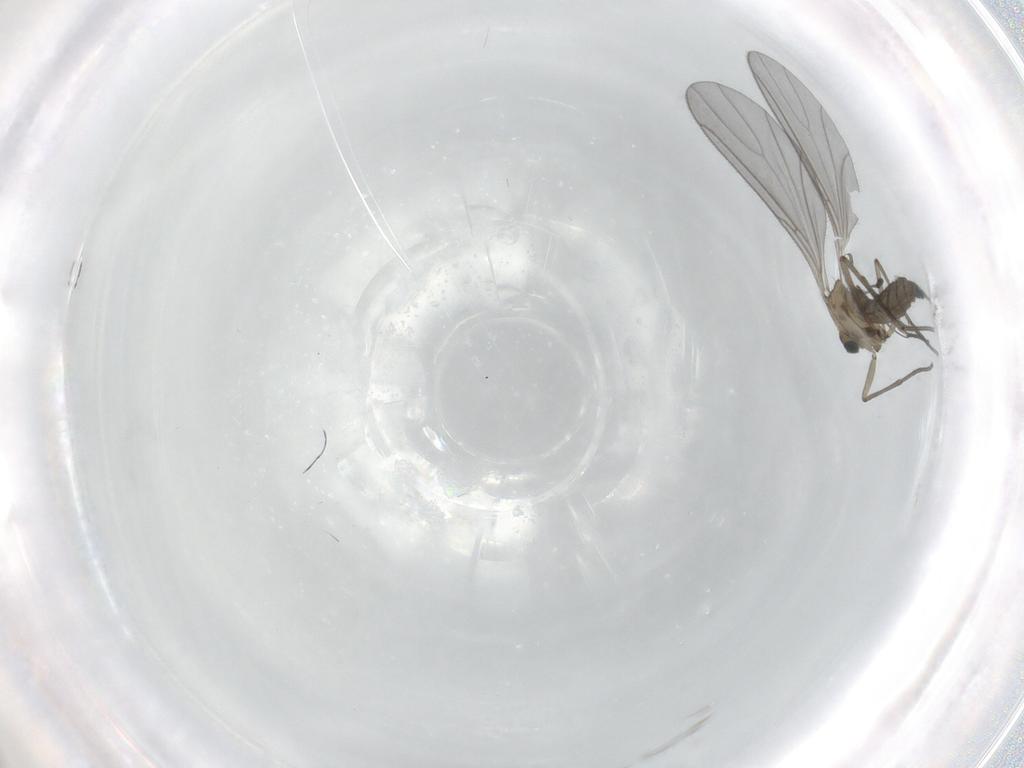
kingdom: Animalia
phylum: Arthropoda
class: Insecta
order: Diptera
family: Sciaridae
